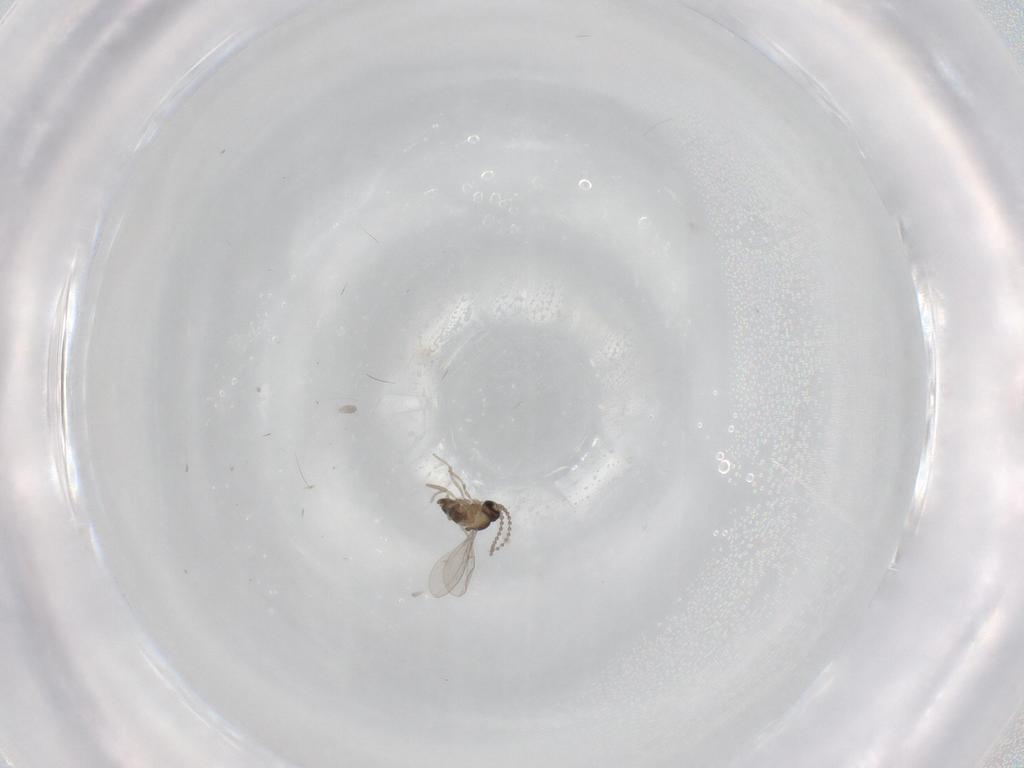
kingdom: Animalia
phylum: Arthropoda
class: Insecta
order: Diptera
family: Cecidomyiidae
